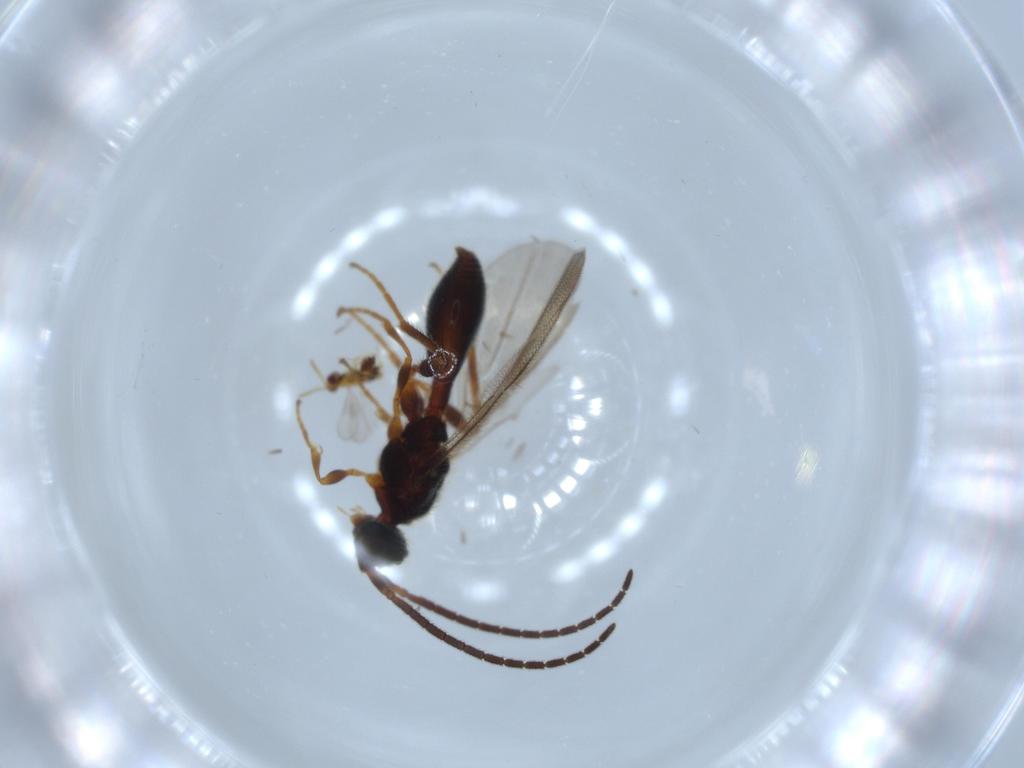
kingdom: Animalia
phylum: Arthropoda
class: Insecta
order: Hymenoptera
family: Aphelinidae
